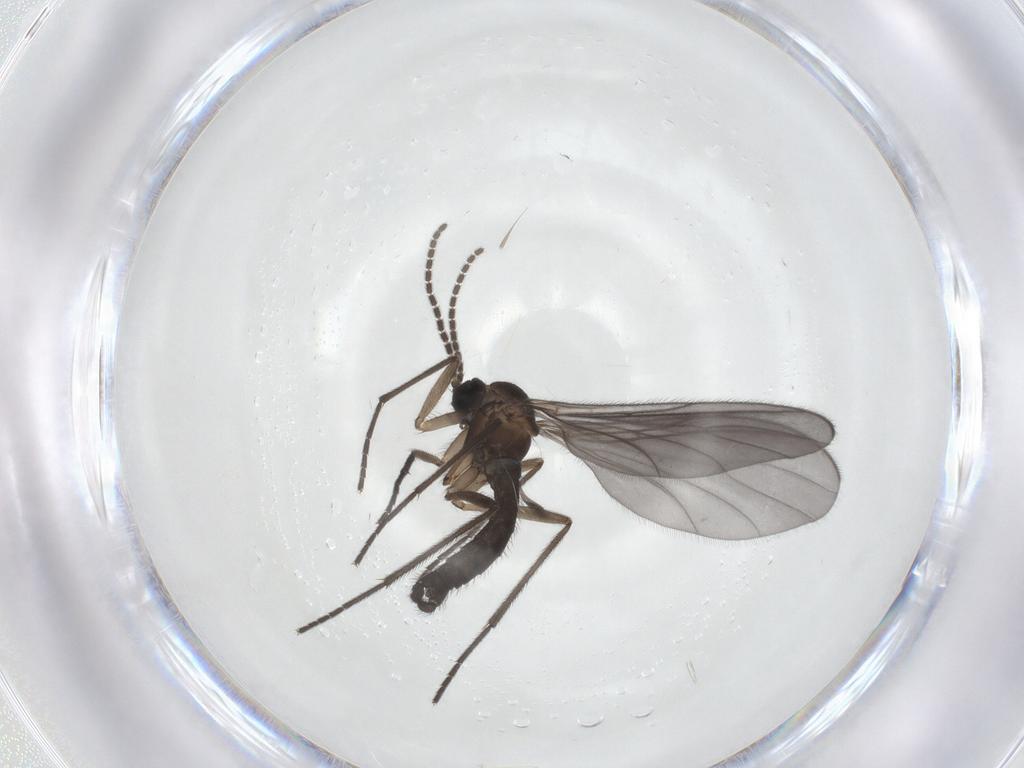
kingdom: Animalia
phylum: Arthropoda
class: Insecta
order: Diptera
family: Sciaridae
